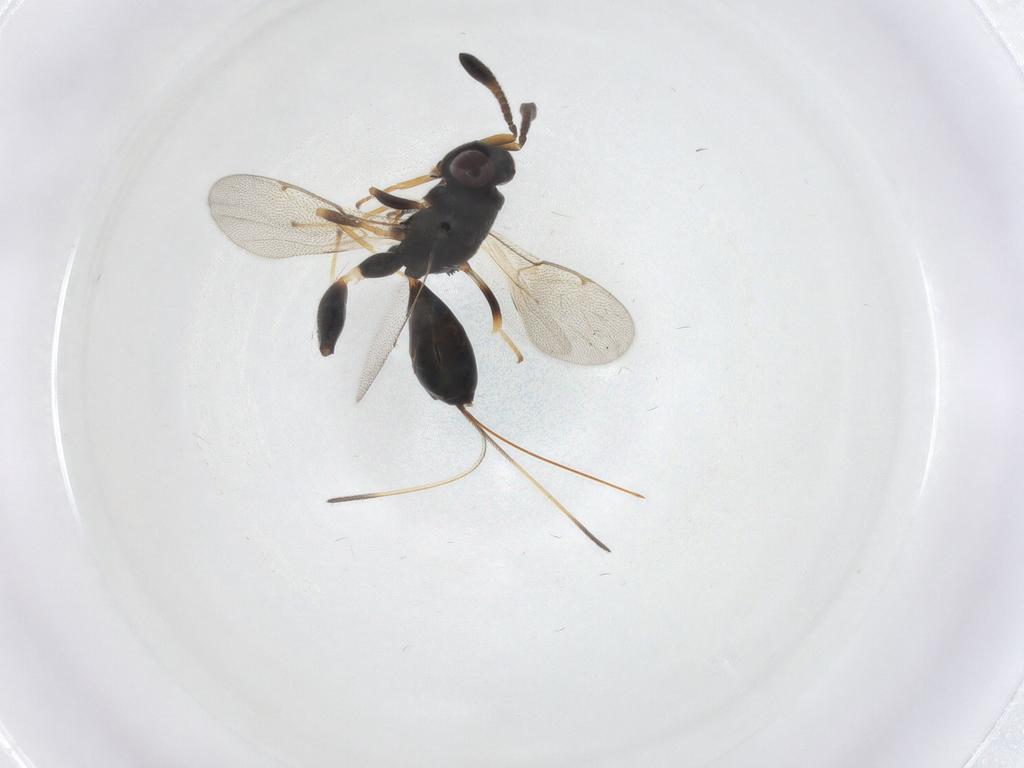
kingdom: Animalia
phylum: Arthropoda
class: Insecta
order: Hymenoptera
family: Torymidae
